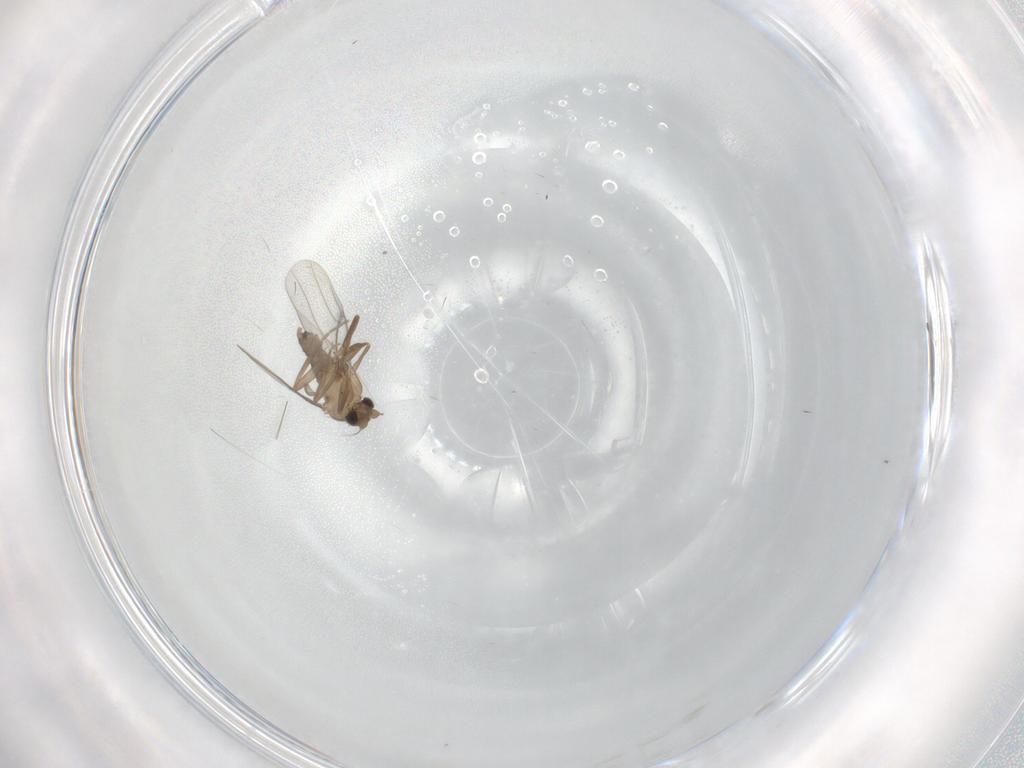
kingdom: Animalia
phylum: Arthropoda
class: Insecta
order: Diptera
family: Cecidomyiidae
